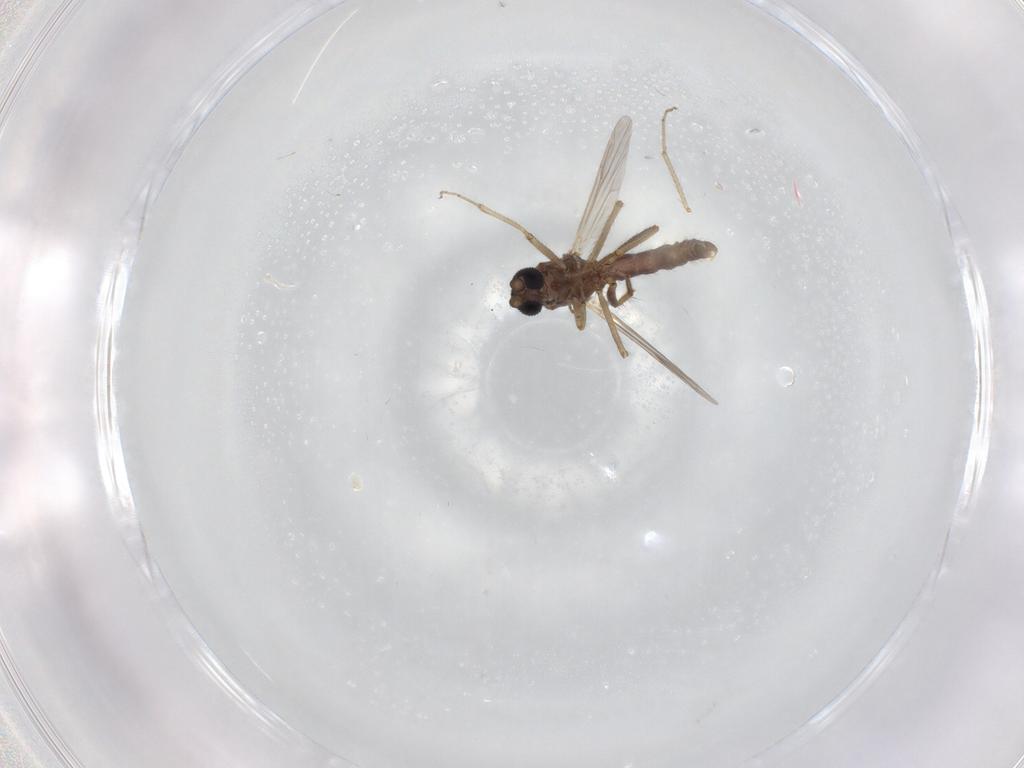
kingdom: Animalia
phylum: Arthropoda
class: Insecta
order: Diptera
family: Ceratopogonidae
